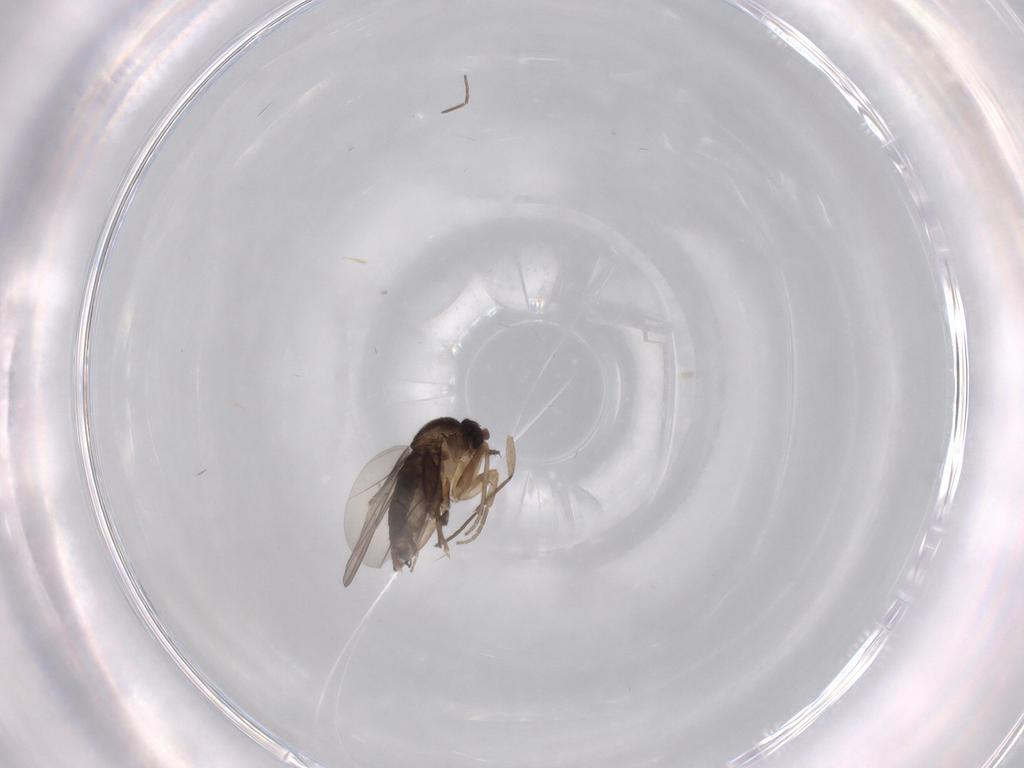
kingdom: Animalia
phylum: Arthropoda
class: Insecta
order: Diptera
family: Phoridae
